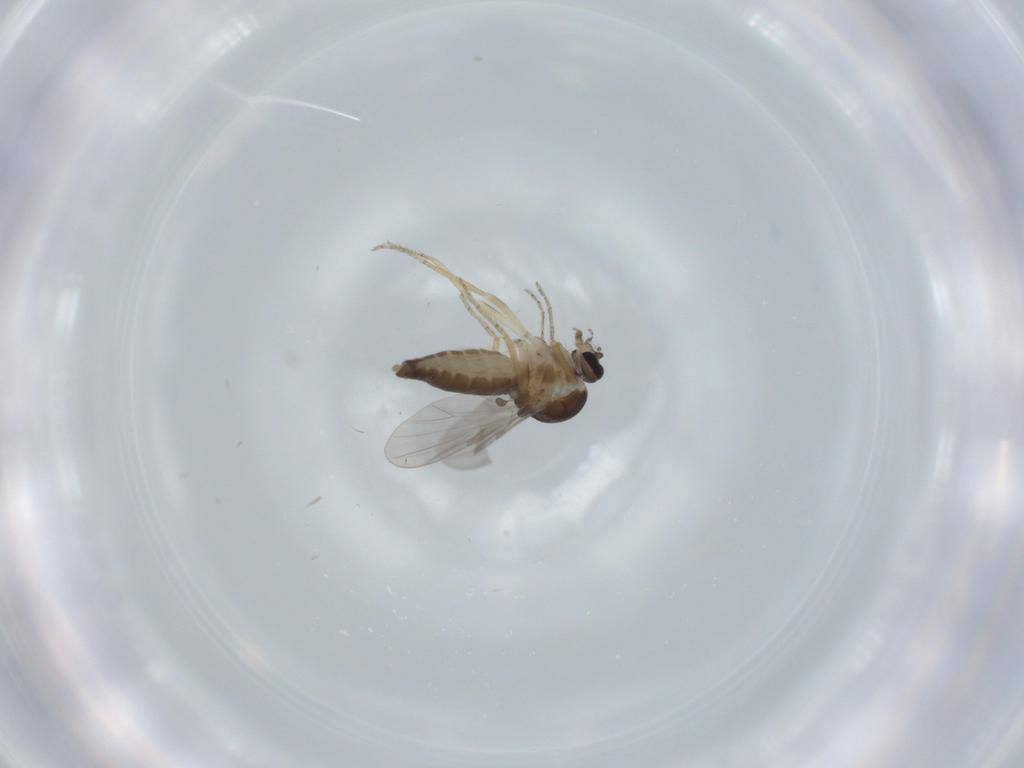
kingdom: Animalia
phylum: Arthropoda
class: Insecta
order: Diptera
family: Ceratopogonidae
